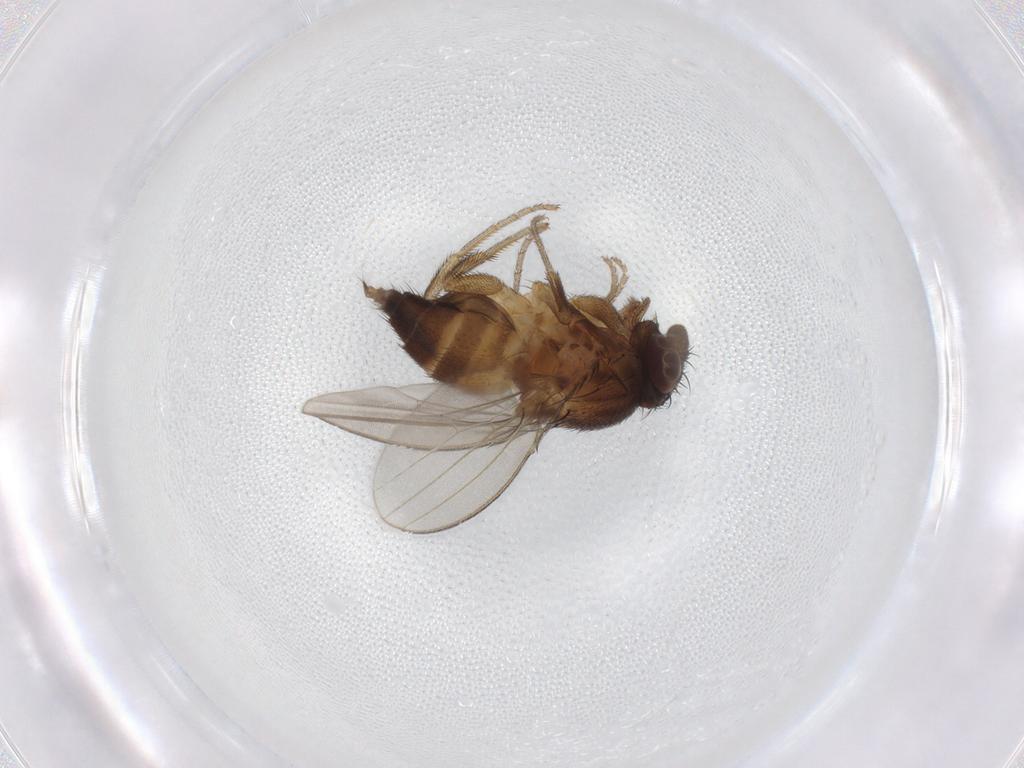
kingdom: Animalia
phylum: Arthropoda
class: Insecta
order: Diptera
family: Milichiidae
